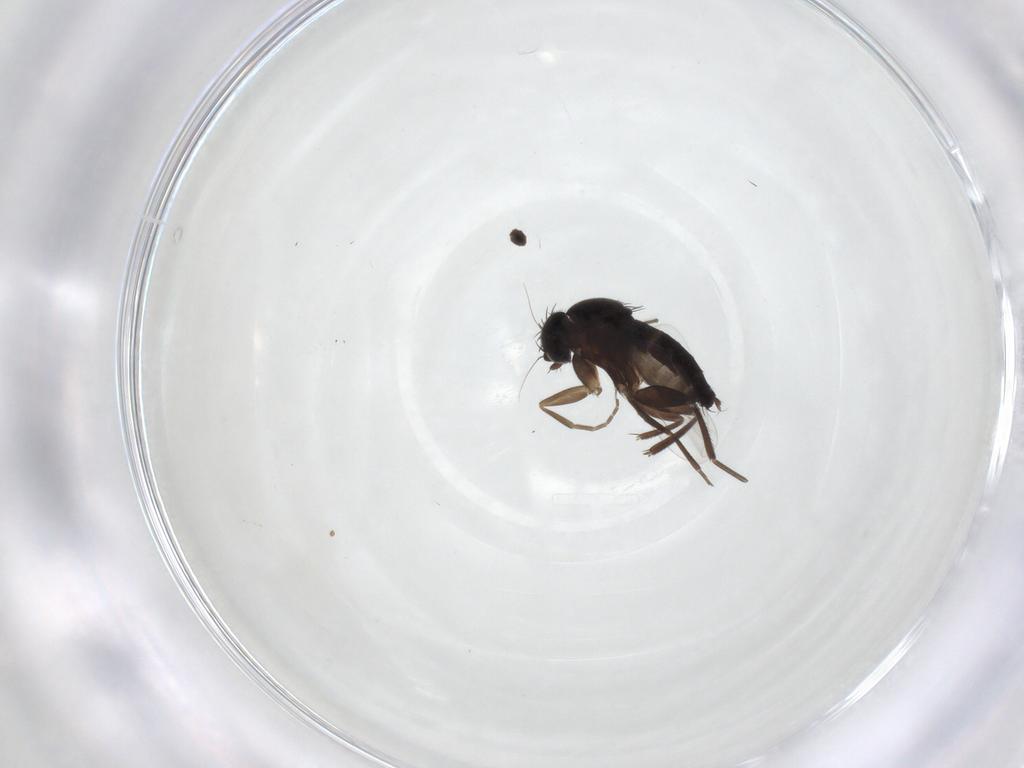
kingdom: Animalia
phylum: Arthropoda
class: Insecta
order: Diptera
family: Phoridae
